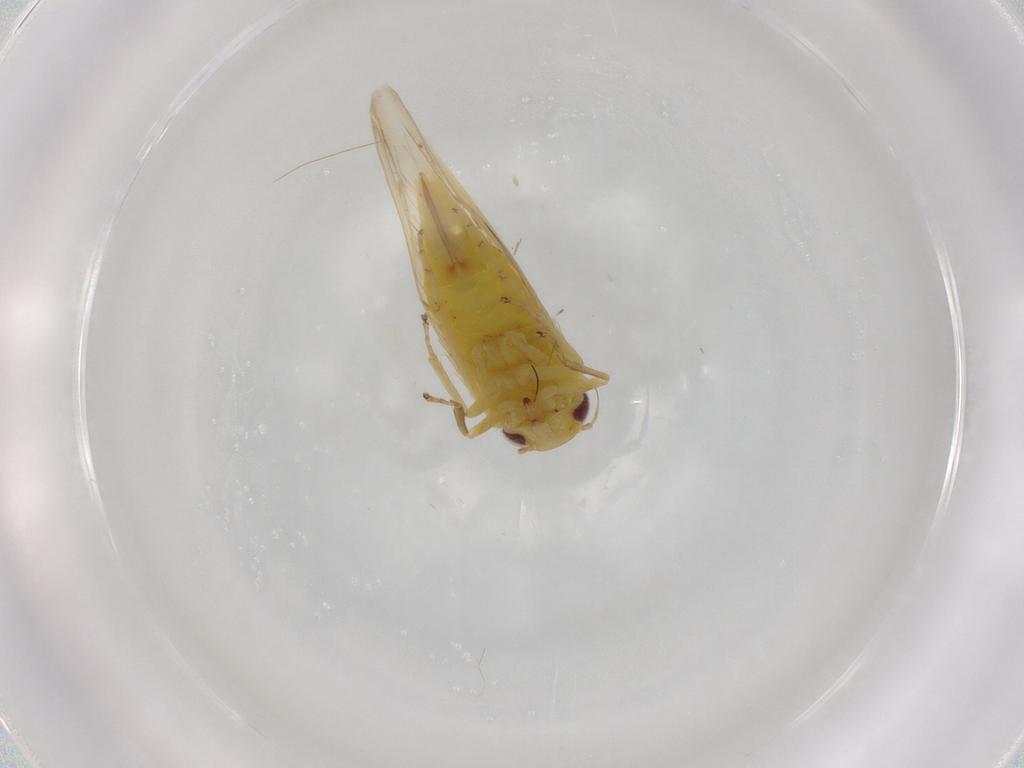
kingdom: Animalia
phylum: Arthropoda
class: Insecta
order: Hemiptera
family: Cicadellidae
